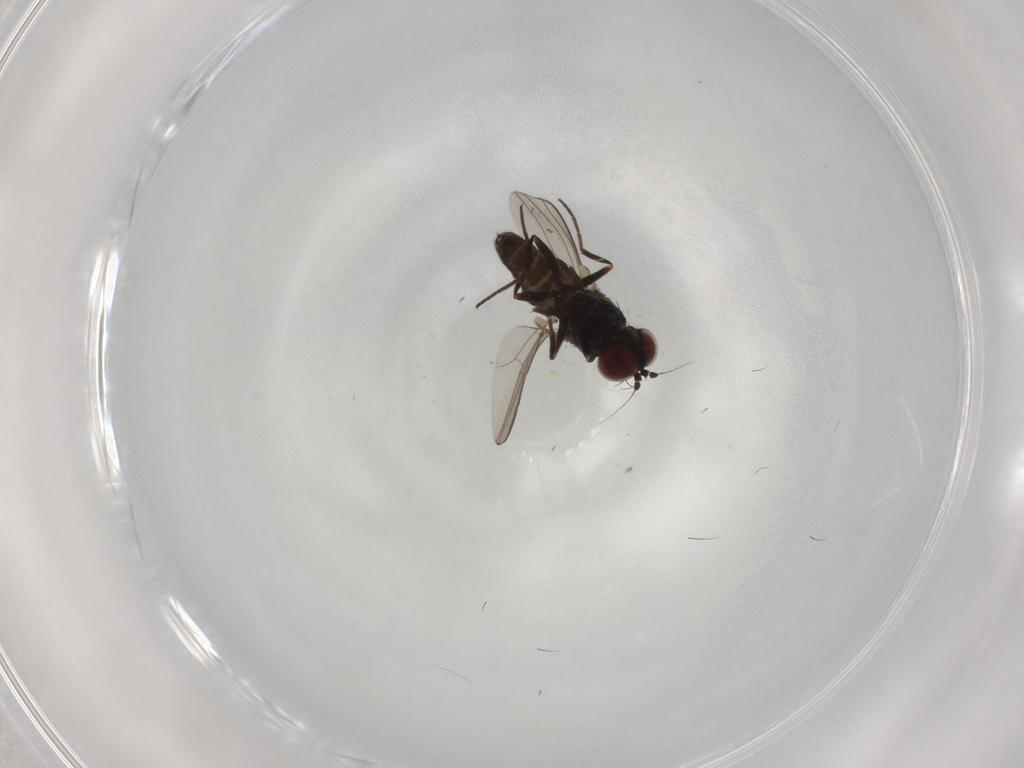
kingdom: Animalia
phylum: Arthropoda
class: Insecta
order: Diptera
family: Dolichopodidae
